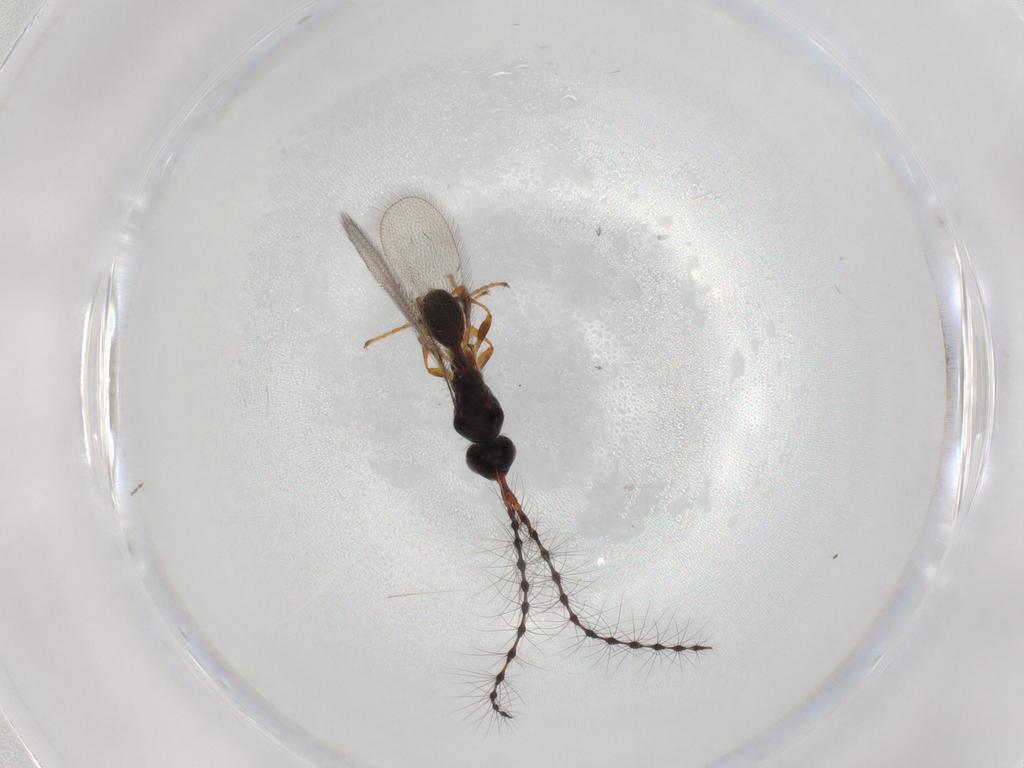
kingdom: Animalia
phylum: Arthropoda
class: Insecta
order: Hymenoptera
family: Diapriidae
